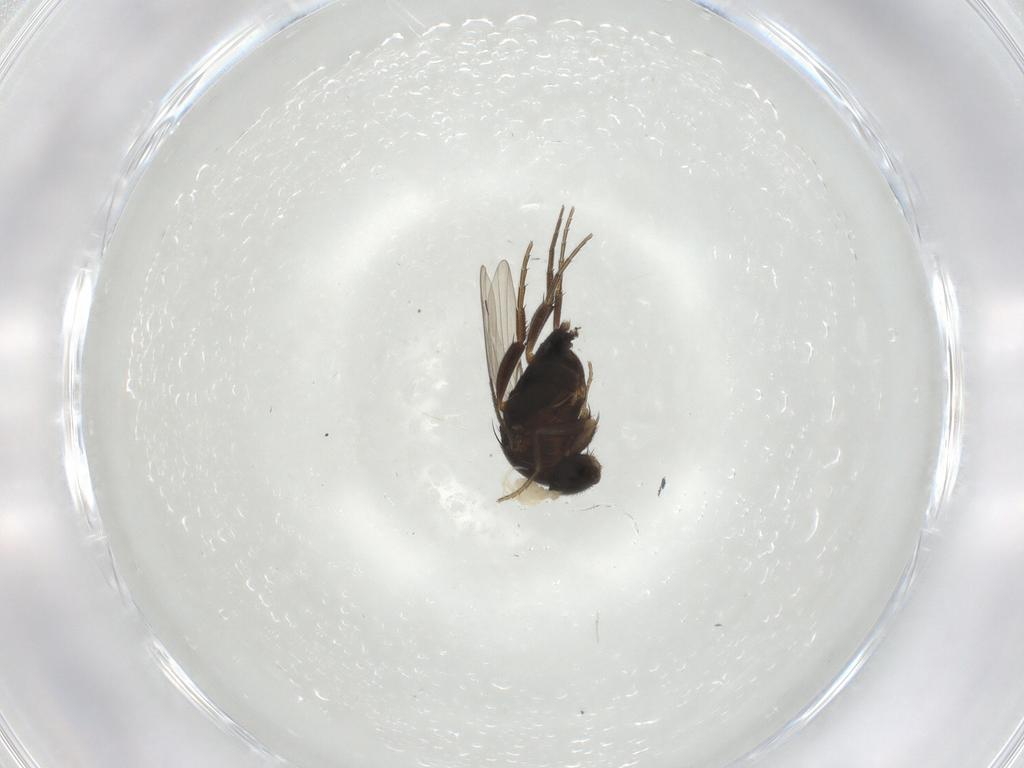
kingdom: Animalia
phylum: Arthropoda
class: Insecta
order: Diptera
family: Phoridae
